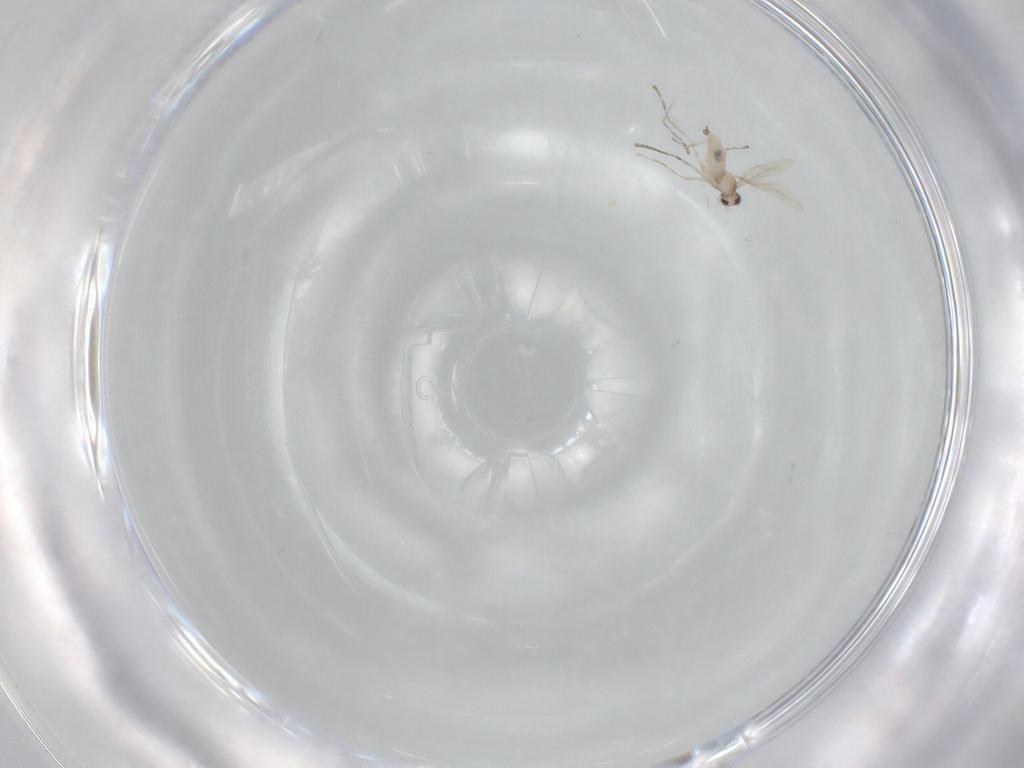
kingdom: Animalia
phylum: Arthropoda
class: Insecta
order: Diptera
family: Cecidomyiidae
